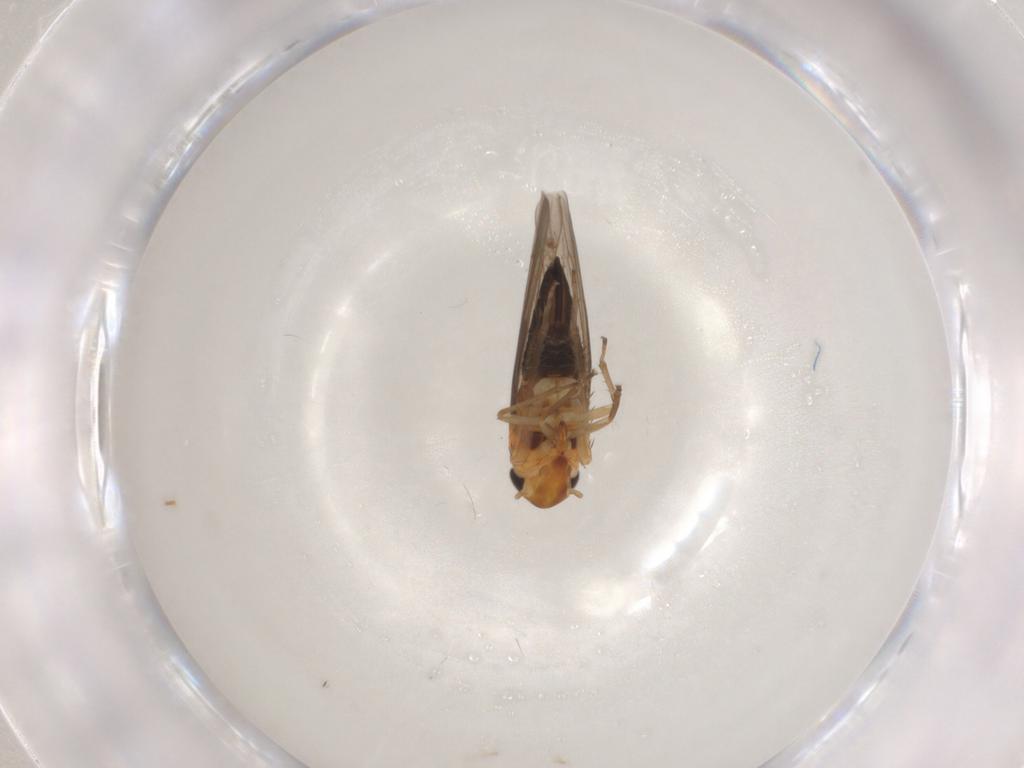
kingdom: Animalia
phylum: Arthropoda
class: Insecta
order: Hemiptera
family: Cicadellidae
